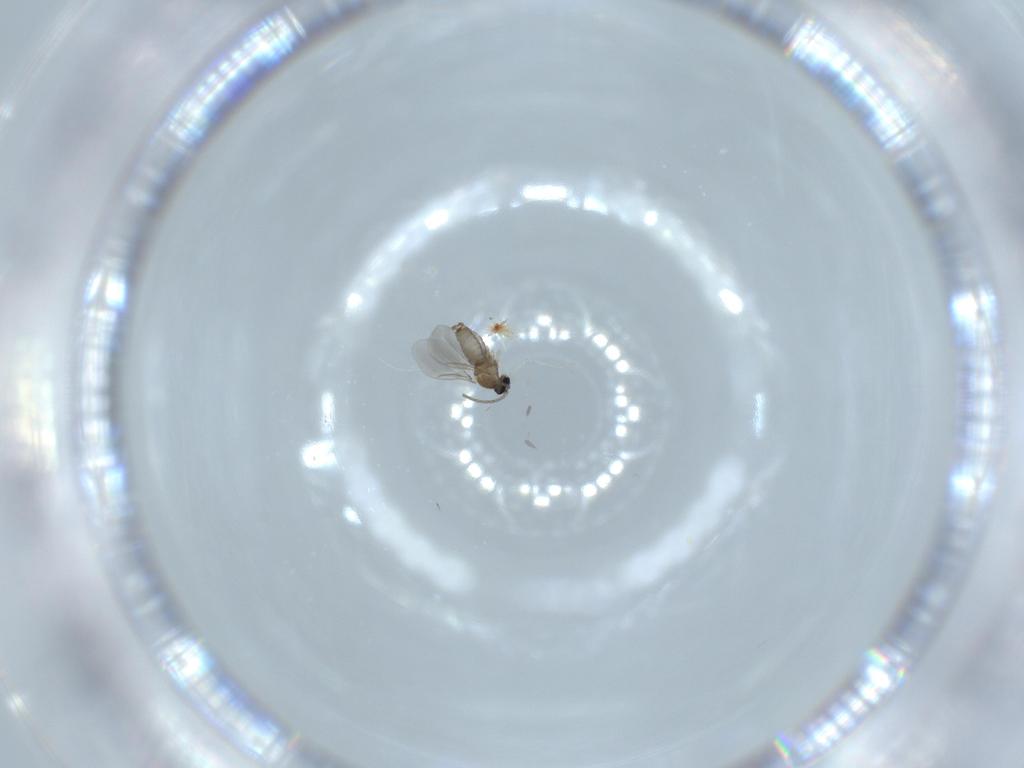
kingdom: Animalia
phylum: Arthropoda
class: Insecta
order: Diptera
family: Cecidomyiidae
